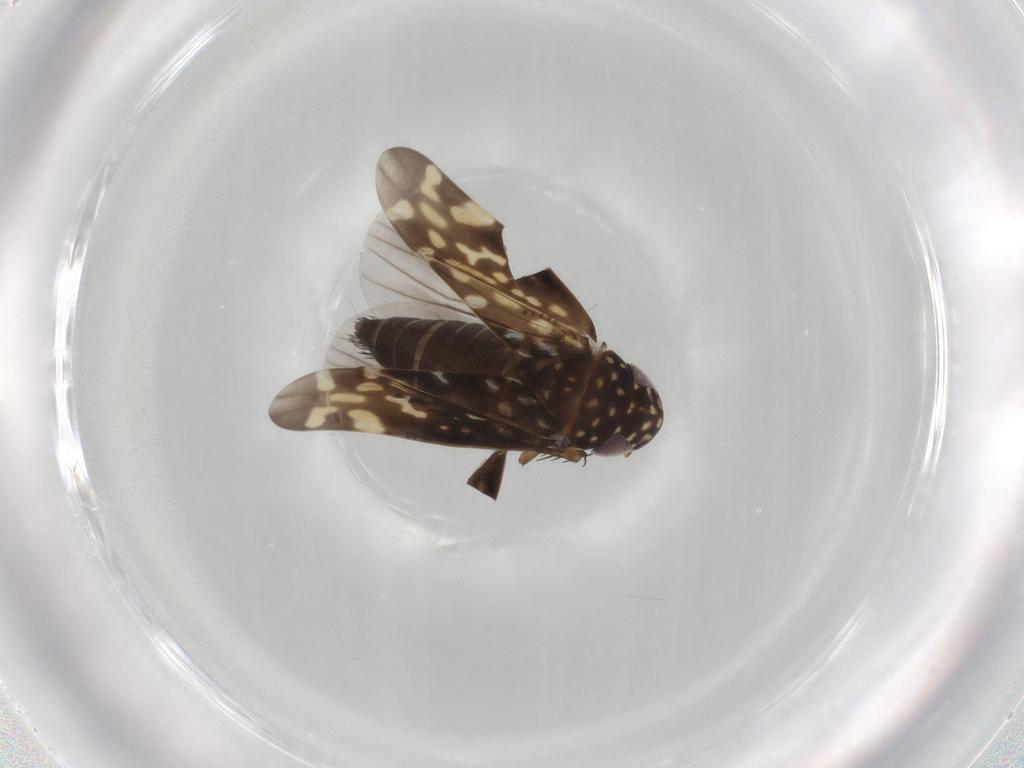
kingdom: Animalia
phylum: Arthropoda
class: Insecta
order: Hemiptera
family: Cicadellidae
